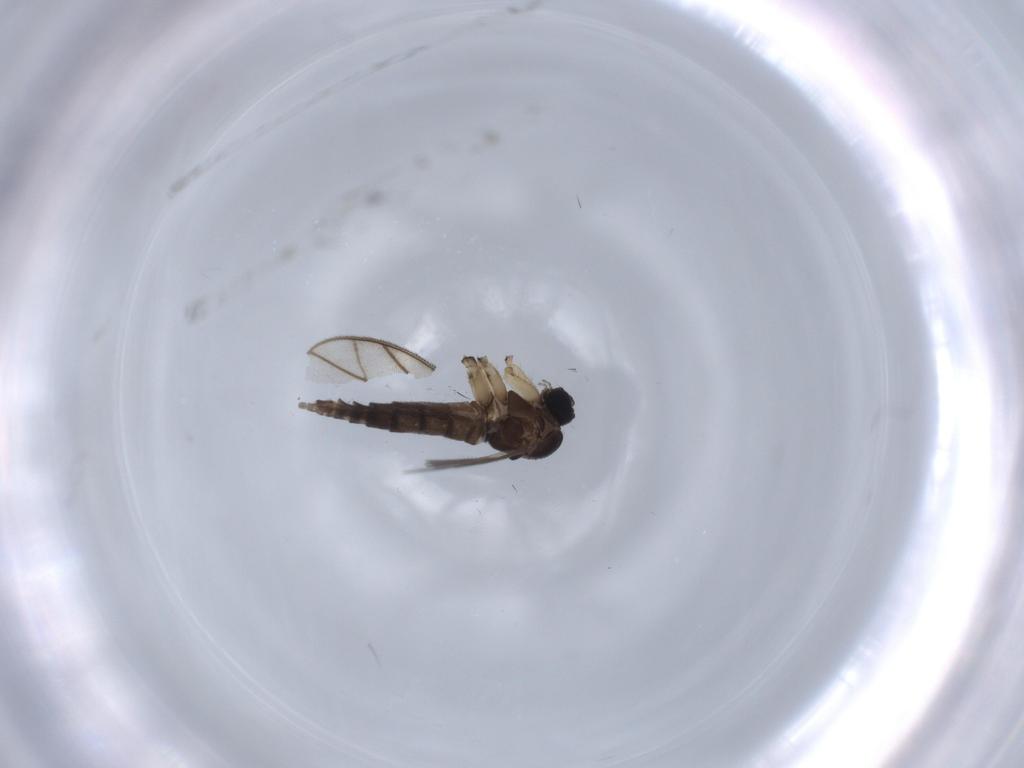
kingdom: Animalia
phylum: Arthropoda
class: Insecta
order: Diptera
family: Sciaridae
